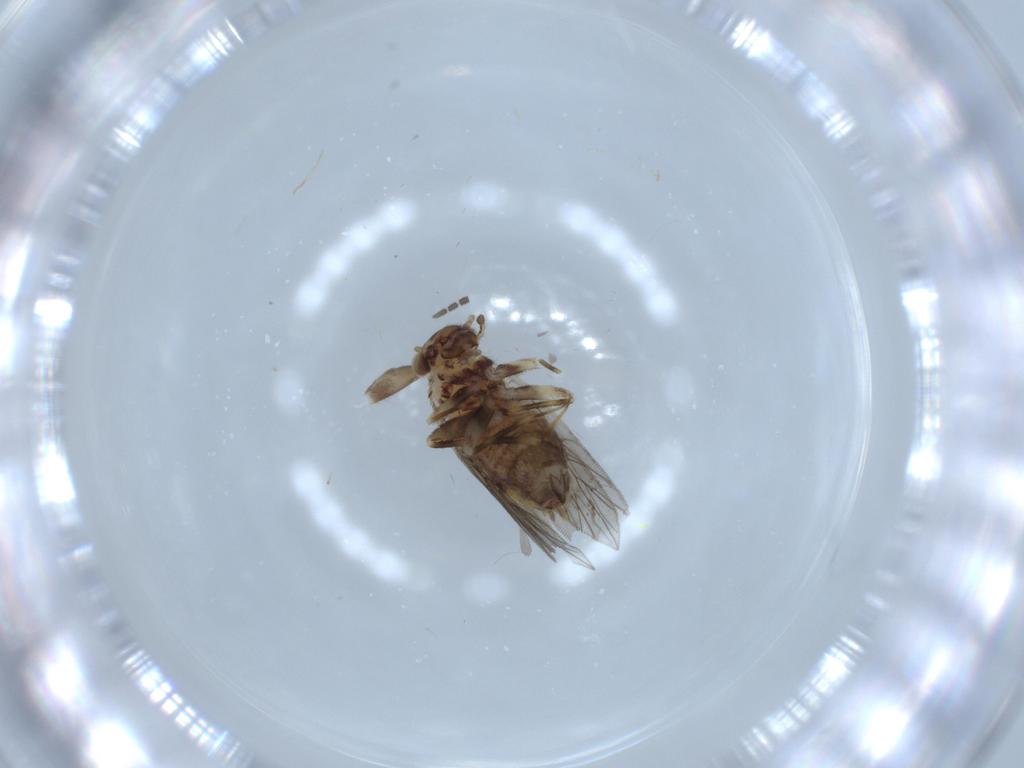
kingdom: Animalia
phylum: Arthropoda
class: Insecta
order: Psocodea
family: Lepidopsocidae
